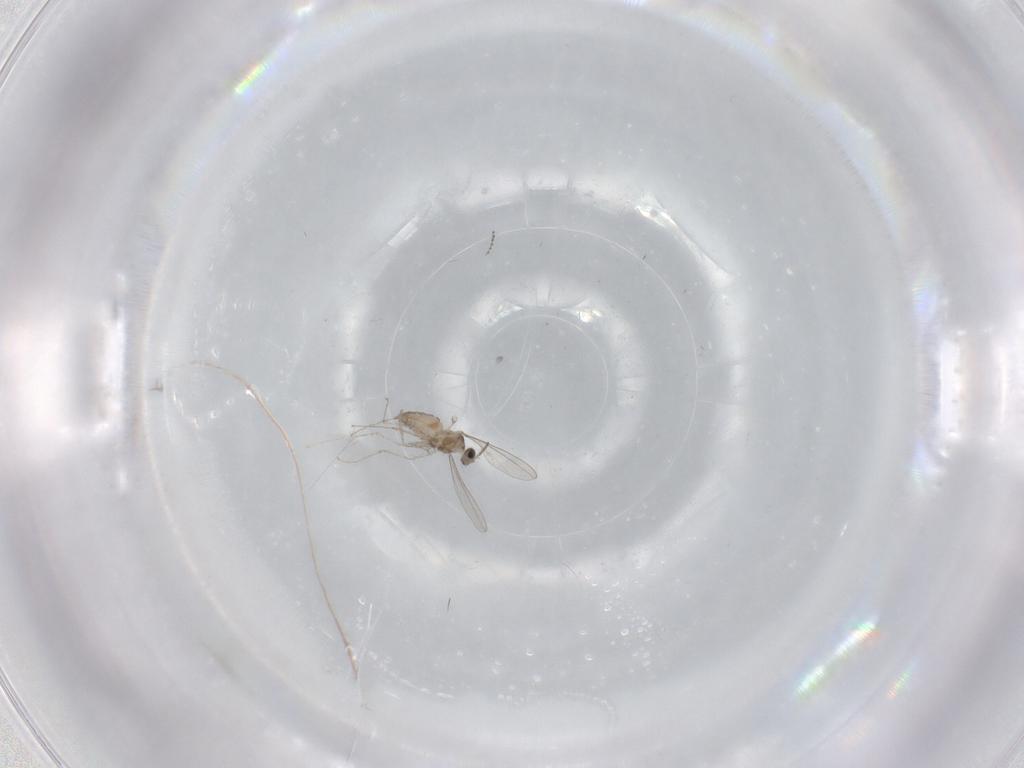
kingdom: Animalia
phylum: Arthropoda
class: Insecta
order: Diptera
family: Cecidomyiidae
